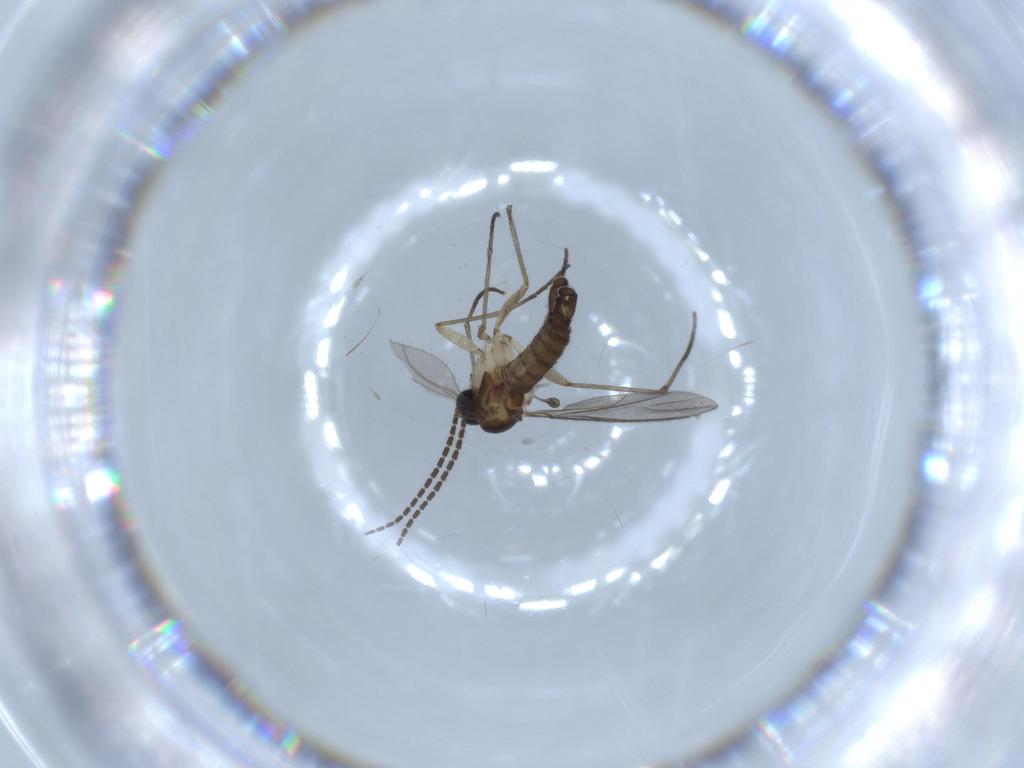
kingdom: Animalia
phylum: Arthropoda
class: Insecta
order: Diptera
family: Sciaridae
